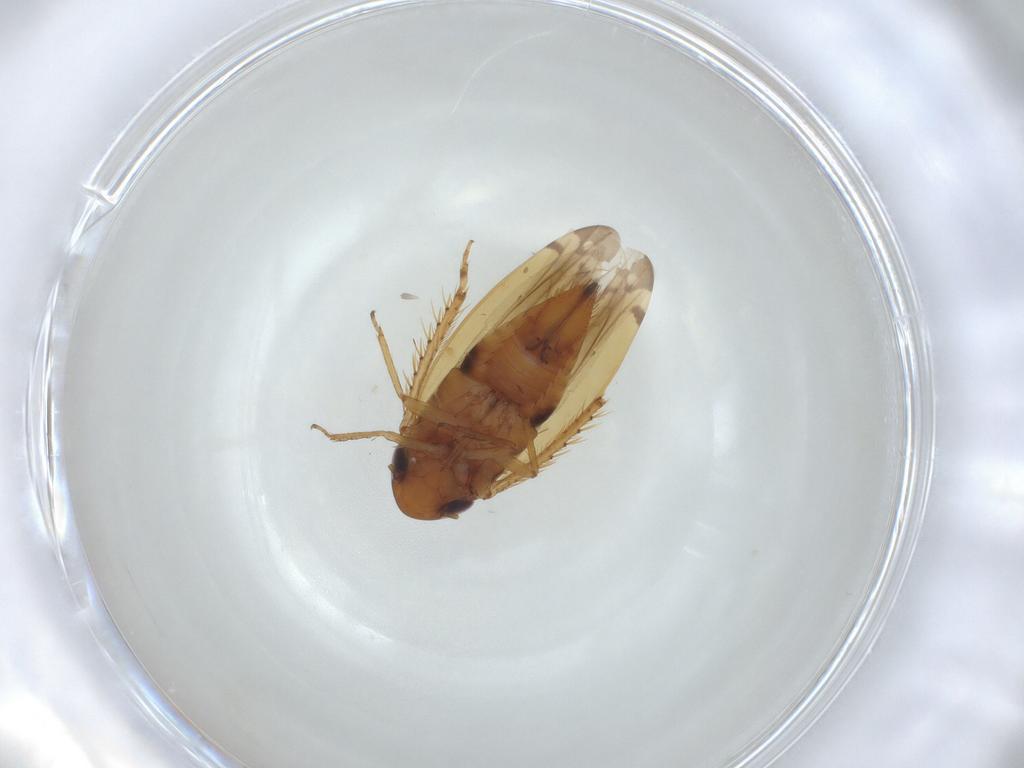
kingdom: Animalia
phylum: Arthropoda
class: Insecta
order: Hemiptera
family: Cicadellidae
